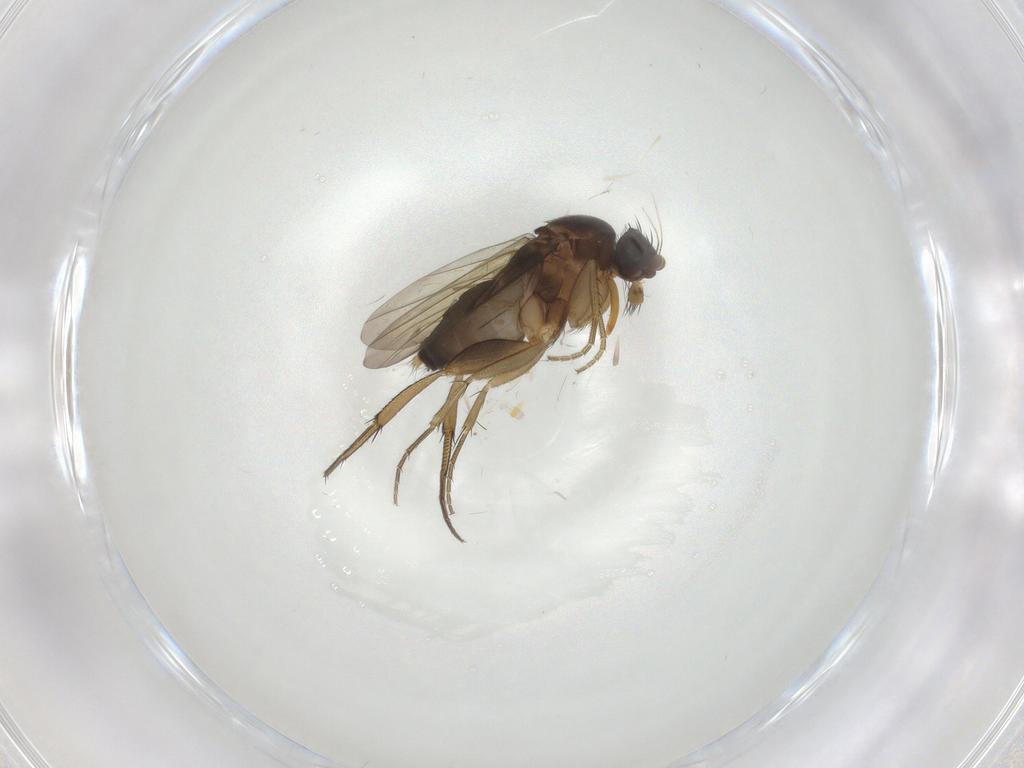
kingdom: Animalia
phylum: Arthropoda
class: Insecta
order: Diptera
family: Phoridae
